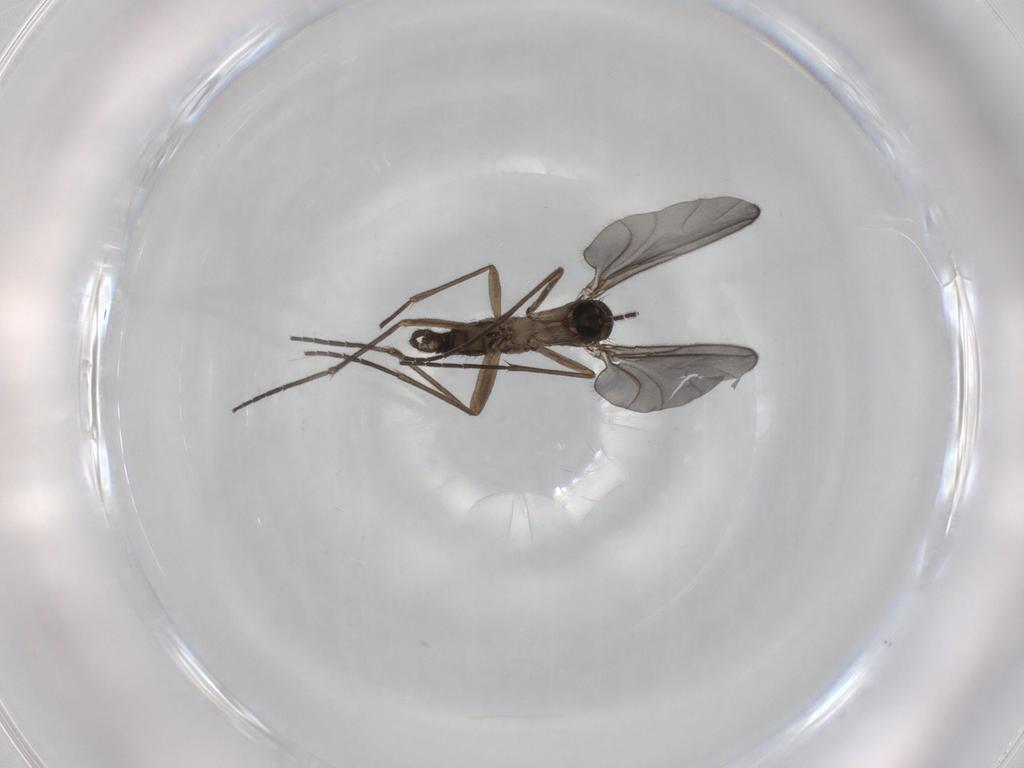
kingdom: Animalia
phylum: Arthropoda
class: Insecta
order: Diptera
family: Sciaridae
